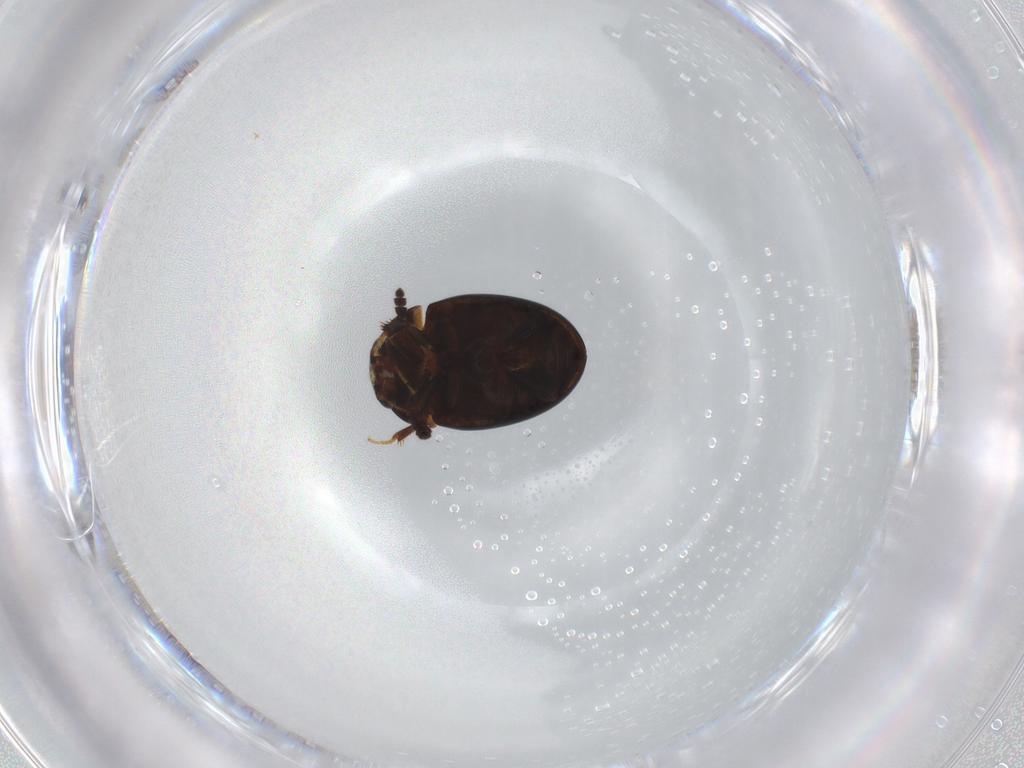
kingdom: Animalia
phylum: Arthropoda
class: Insecta
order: Coleoptera
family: Leiodidae
